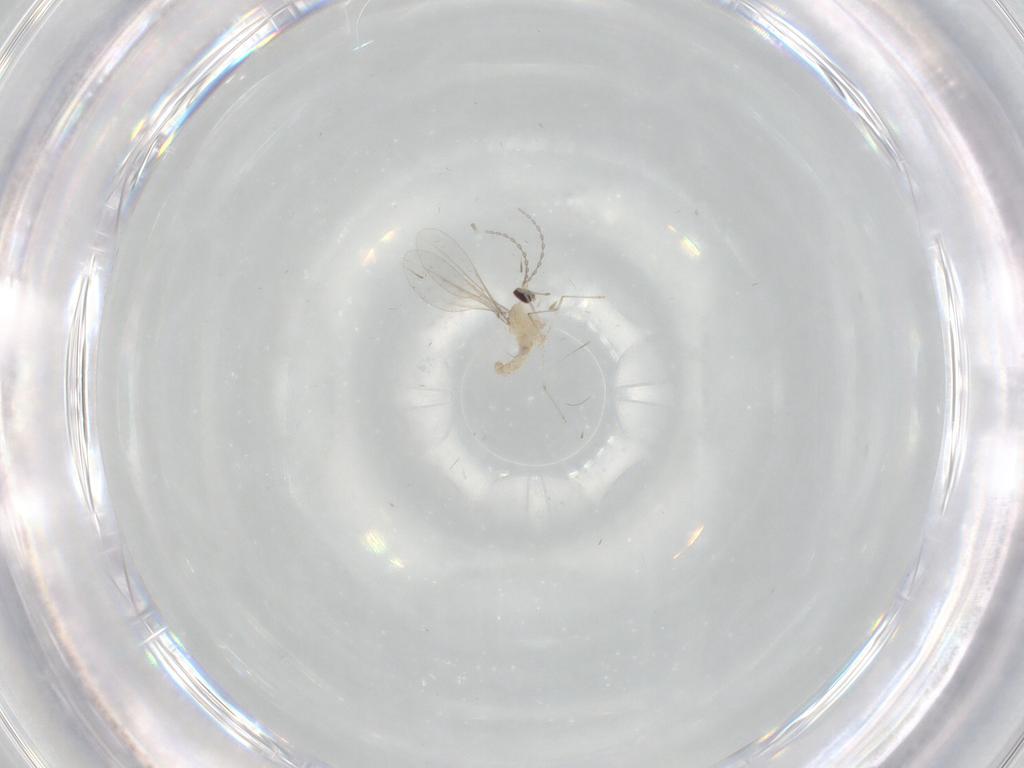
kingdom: Animalia
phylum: Arthropoda
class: Insecta
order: Diptera
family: Cecidomyiidae
